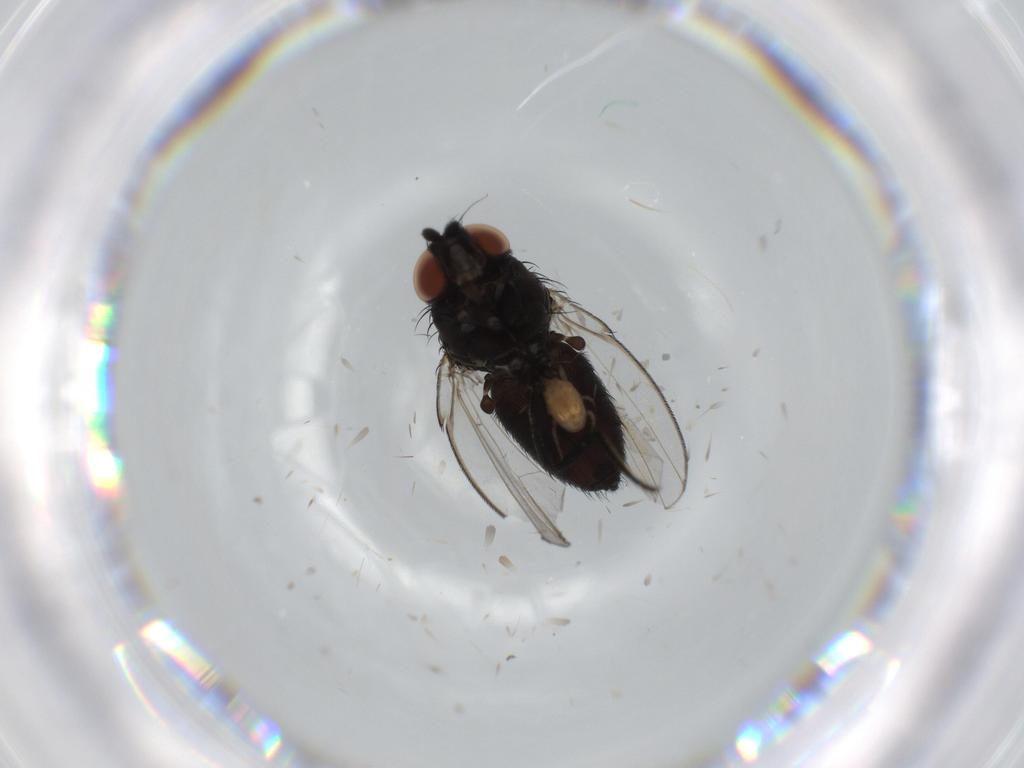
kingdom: Animalia
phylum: Arthropoda
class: Insecta
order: Diptera
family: Milichiidae
